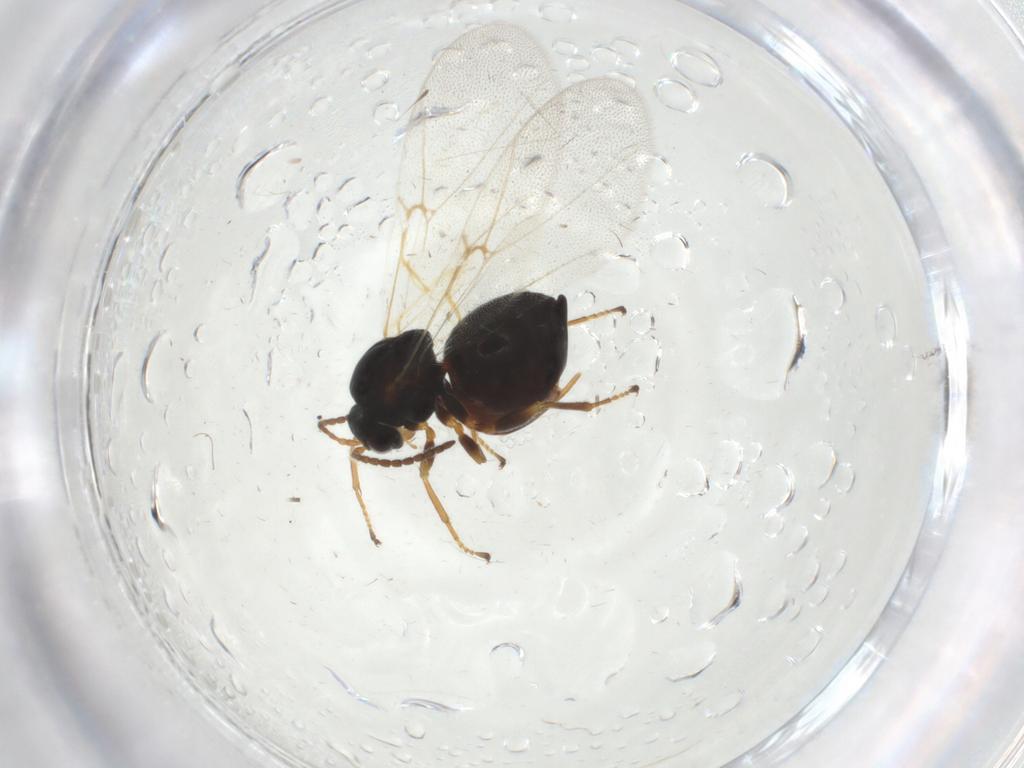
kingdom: Animalia
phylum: Arthropoda
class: Insecta
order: Hymenoptera
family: Cynipidae
